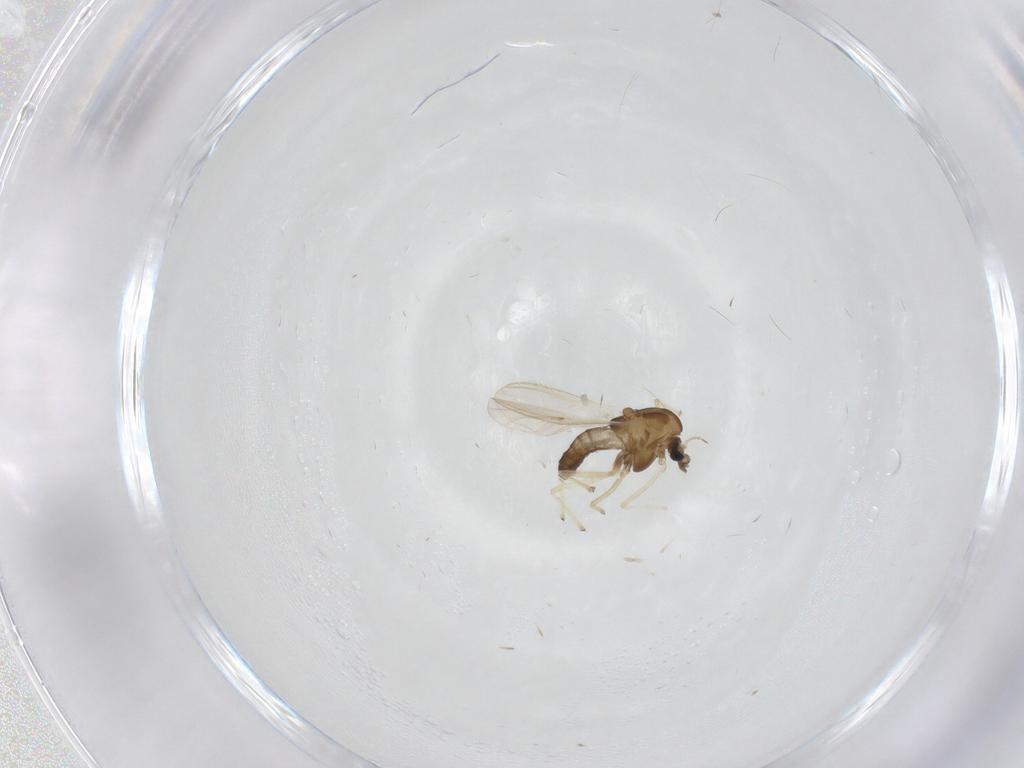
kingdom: Animalia
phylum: Arthropoda
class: Insecta
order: Diptera
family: Chironomidae
